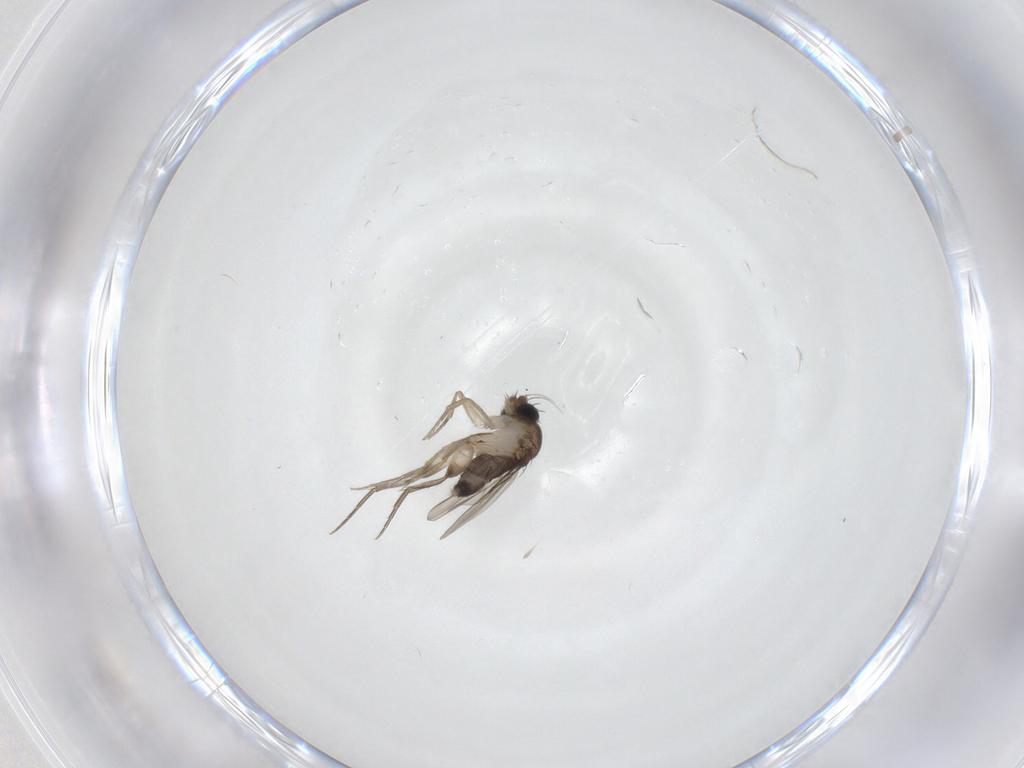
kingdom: Animalia
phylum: Arthropoda
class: Insecta
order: Diptera
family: Phoridae
